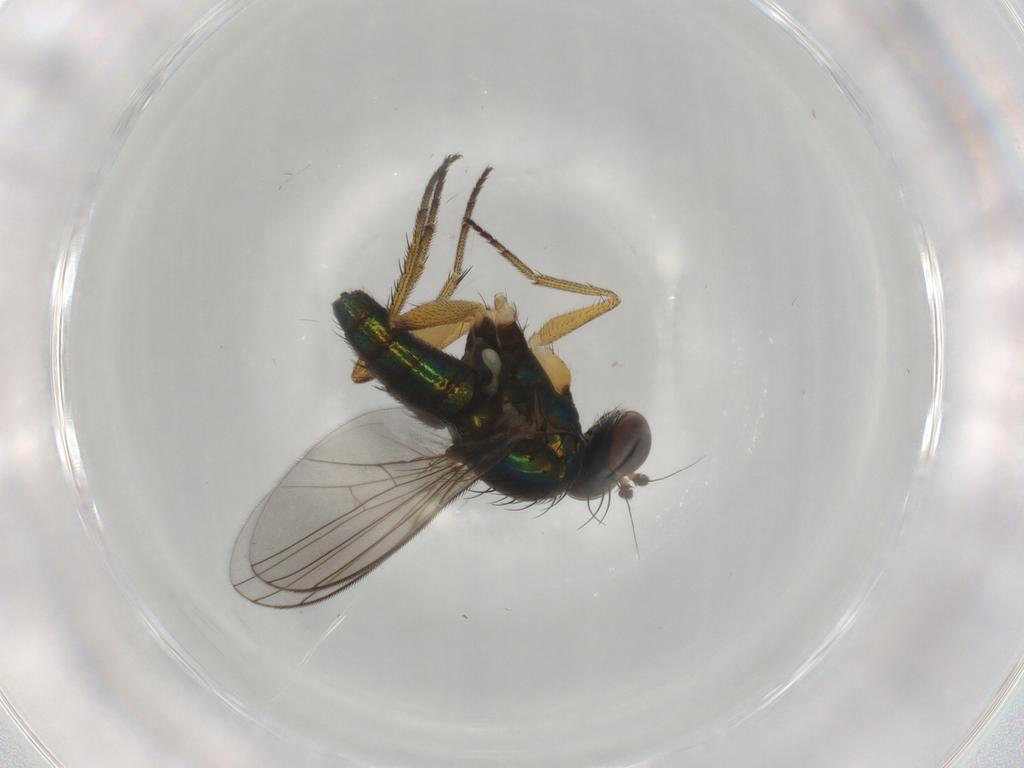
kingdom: Animalia
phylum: Arthropoda
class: Insecta
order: Diptera
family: Dolichopodidae
